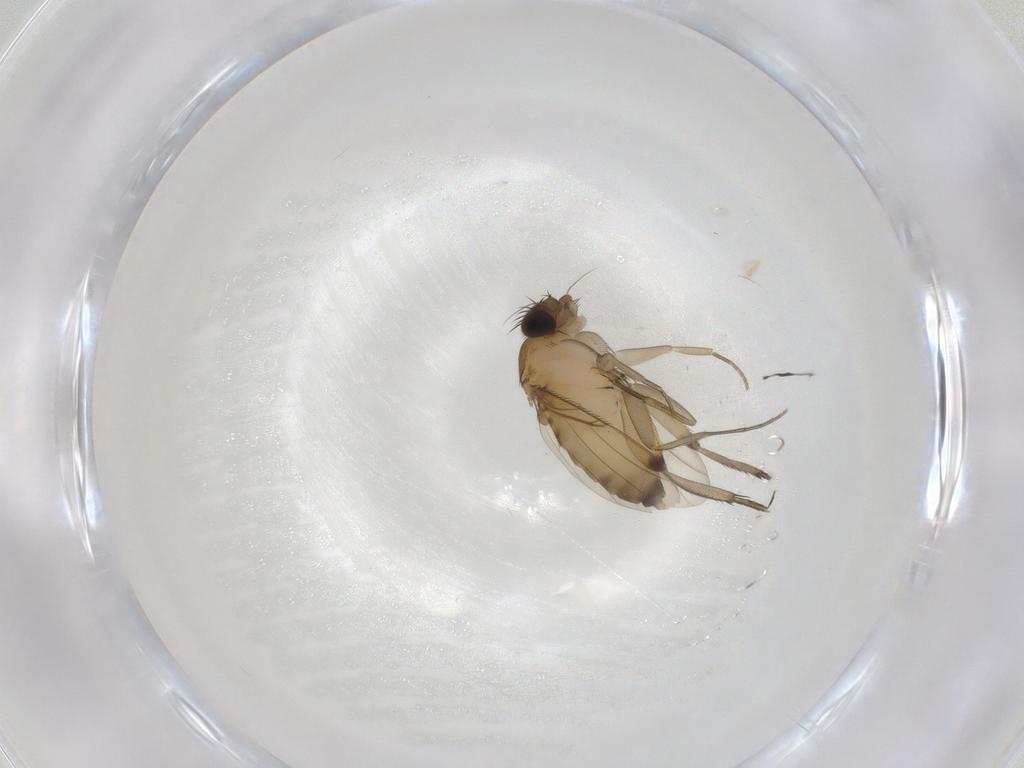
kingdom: Animalia
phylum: Arthropoda
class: Insecta
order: Diptera
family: Phoridae
